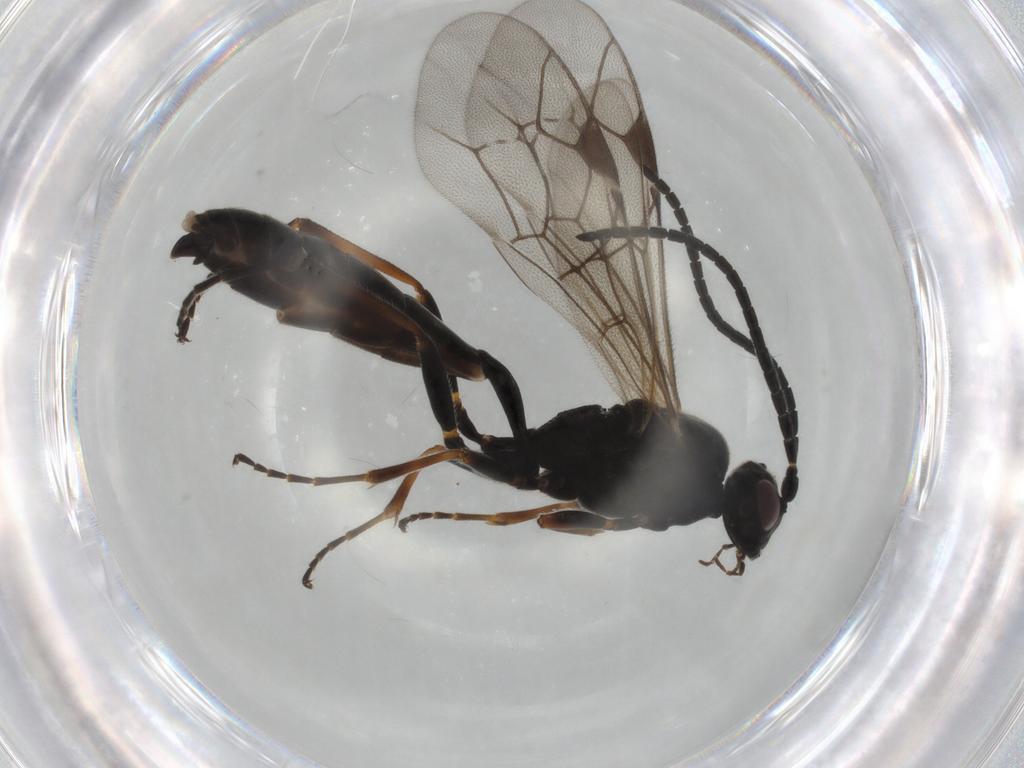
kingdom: Animalia
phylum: Arthropoda
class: Insecta
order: Hymenoptera
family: Ichneumonidae
